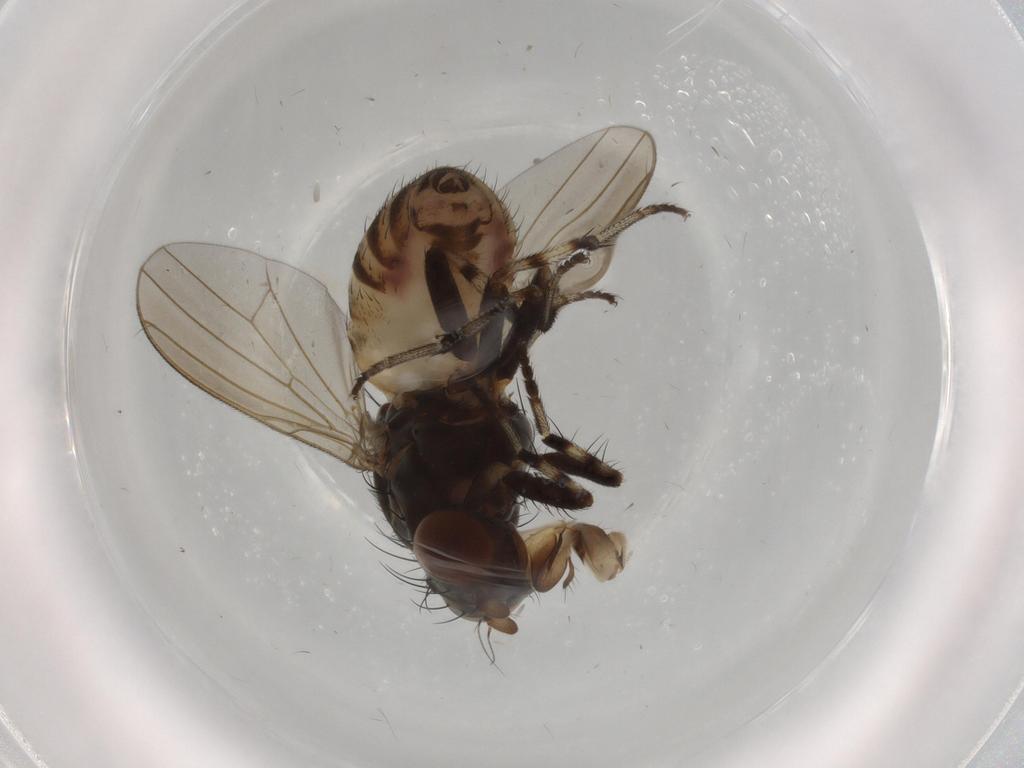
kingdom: Animalia
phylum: Arthropoda
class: Insecta
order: Diptera
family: Lauxaniidae
